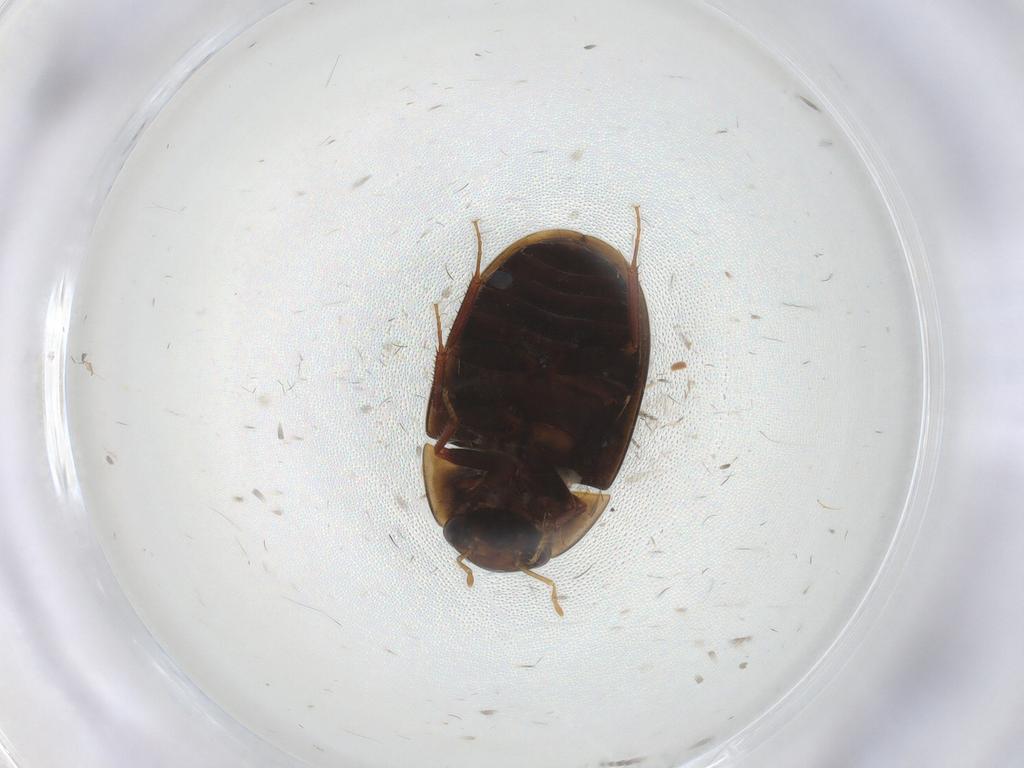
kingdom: Animalia
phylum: Arthropoda
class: Insecta
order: Coleoptera
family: Endomychidae
